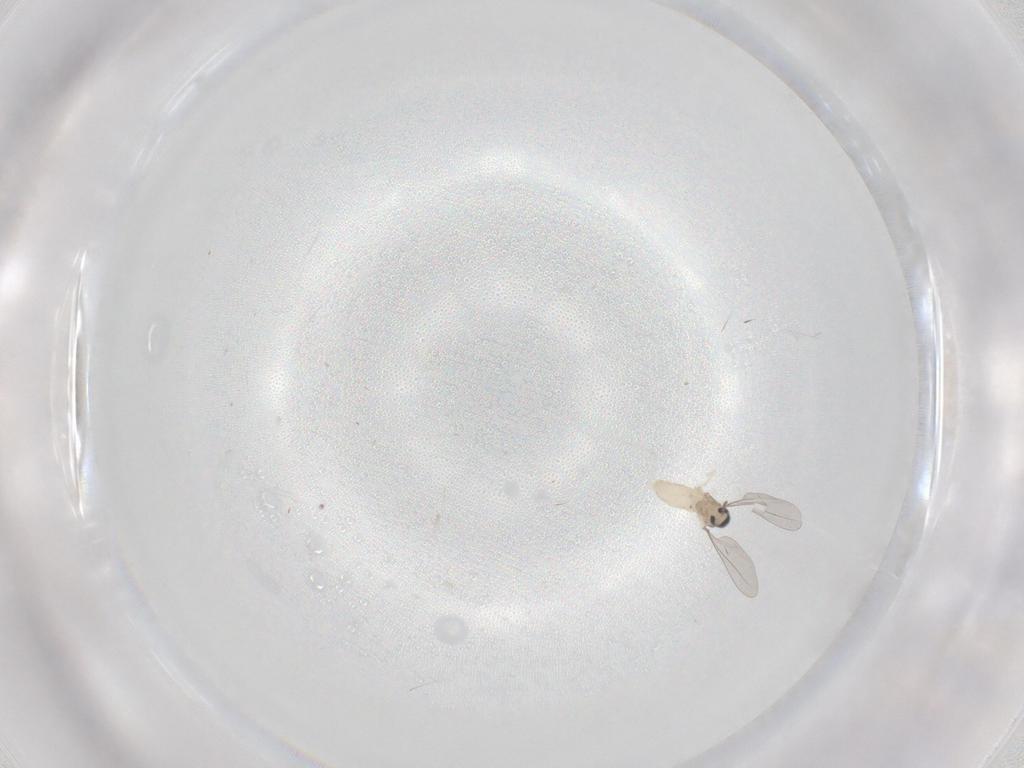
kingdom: Animalia
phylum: Arthropoda
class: Insecta
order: Diptera
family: Cecidomyiidae
